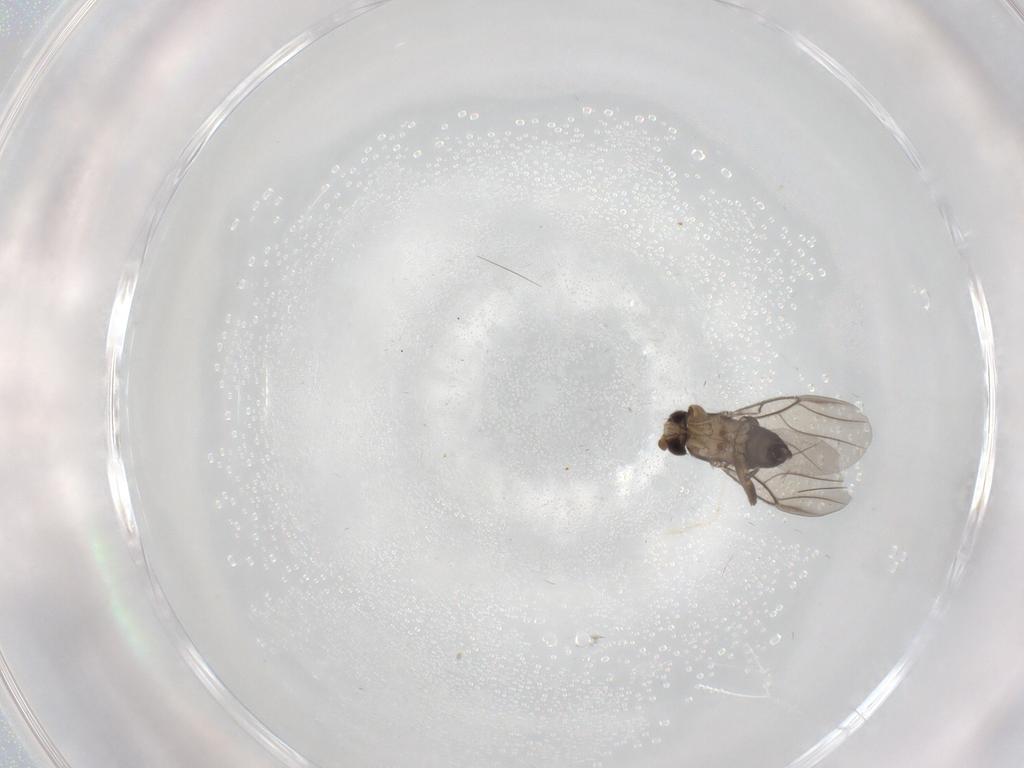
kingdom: Animalia
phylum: Arthropoda
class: Insecta
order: Diptera
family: Phoridae
